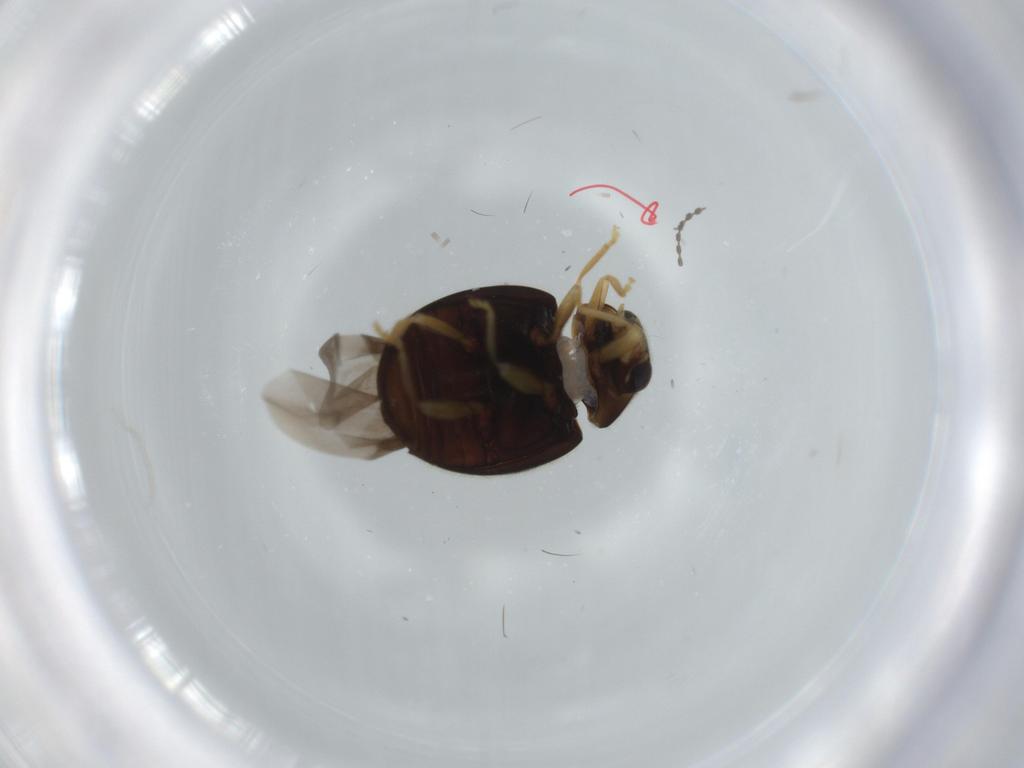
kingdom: Animalia
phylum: Arthropoda
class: Insecta
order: Coleoptera
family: Coccinellidae
